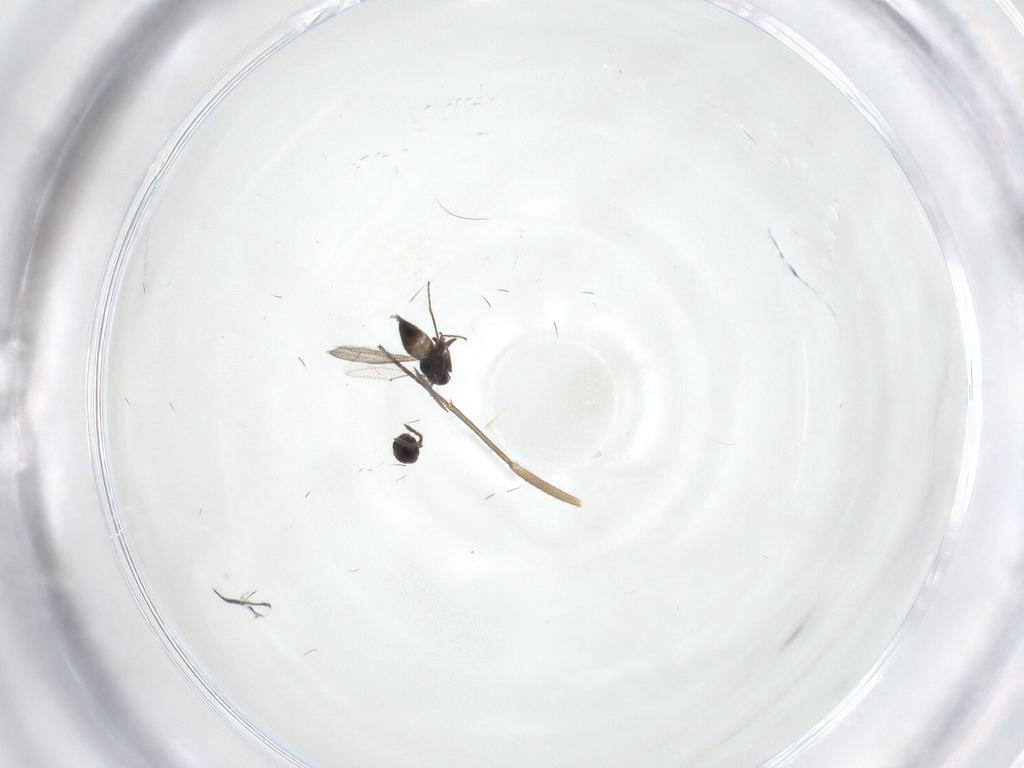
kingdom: Animalia
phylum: Arthropoda
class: Insecta
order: Hymenoptera
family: Eulophidae
